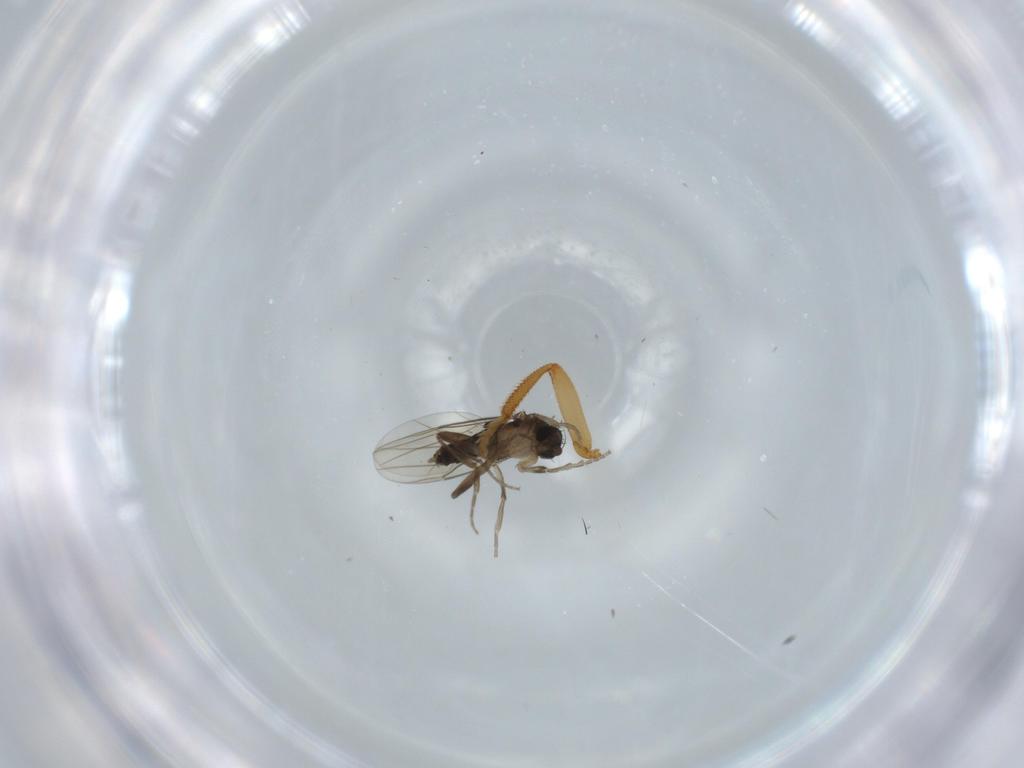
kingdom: Animalia
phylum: Arthropoda
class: Insecta
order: Diptera
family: Phoridae
